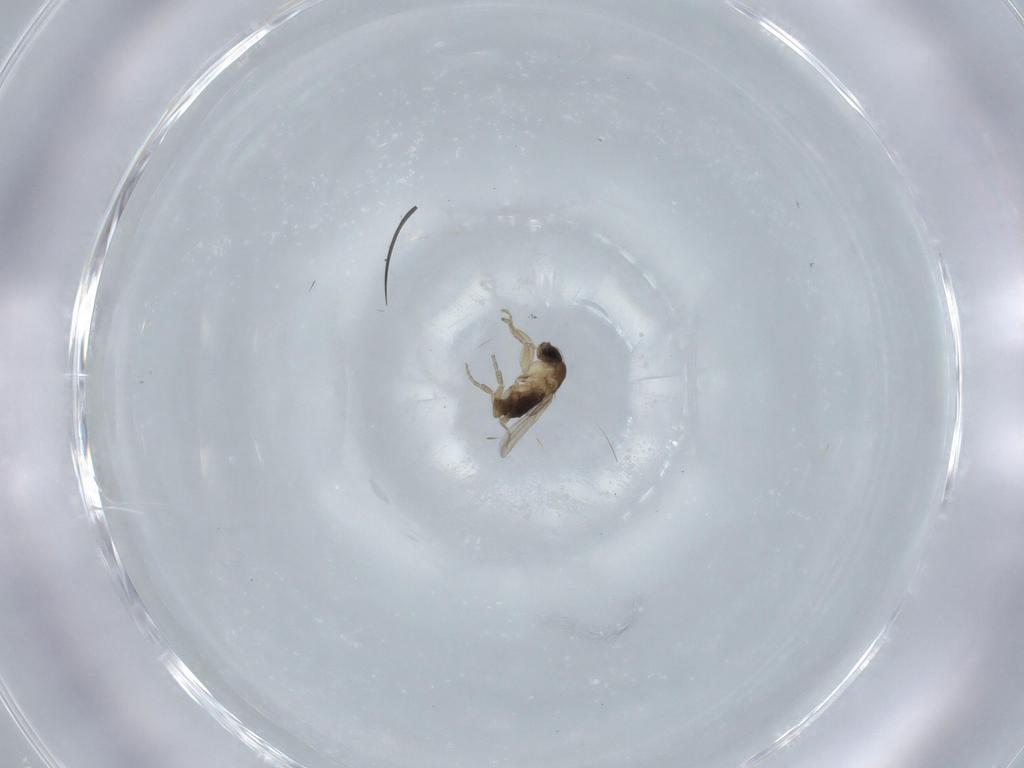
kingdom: Animalia
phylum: Arthropoda
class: Insecta
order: Diptera
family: Phoridae
